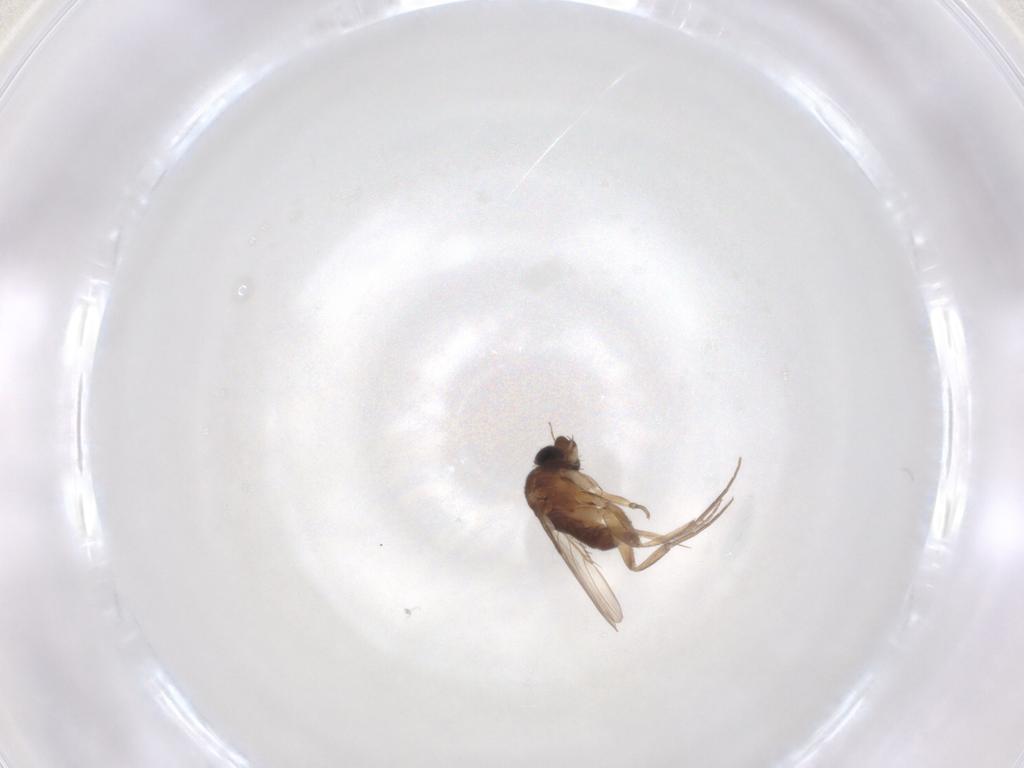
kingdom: Animalia
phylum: Arthropoda
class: Insecta
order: Diptera
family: Phoridae
